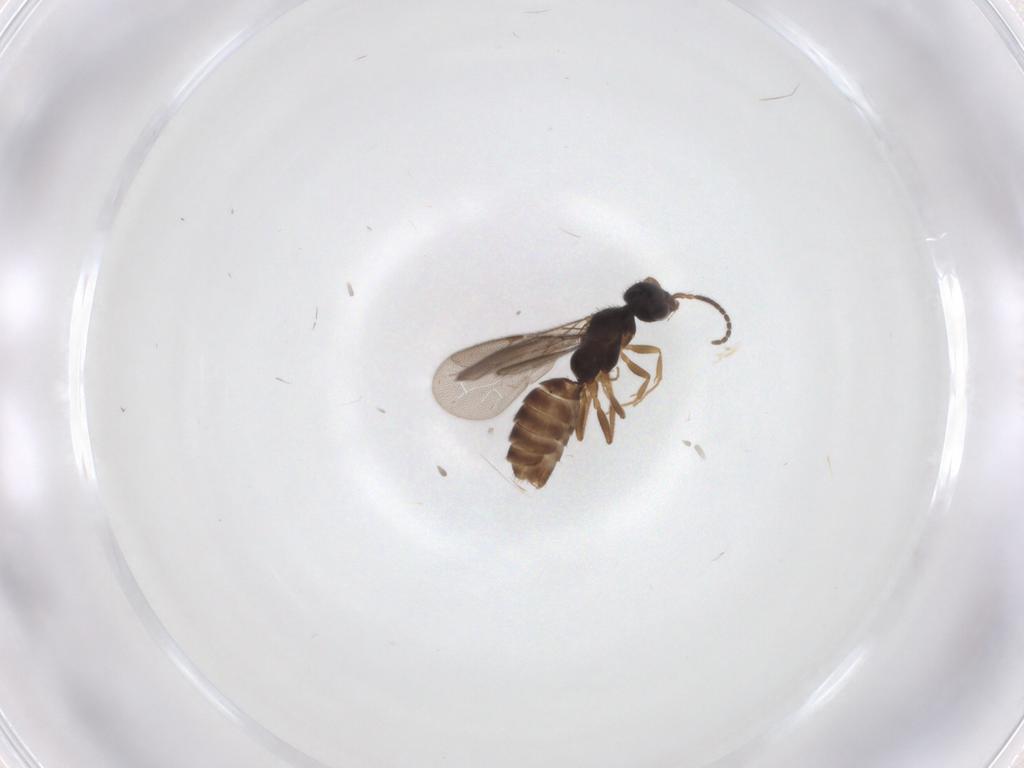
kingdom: Animalia
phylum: Arthropoda
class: Insecta
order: Hymenoptera
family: Bethylidae
